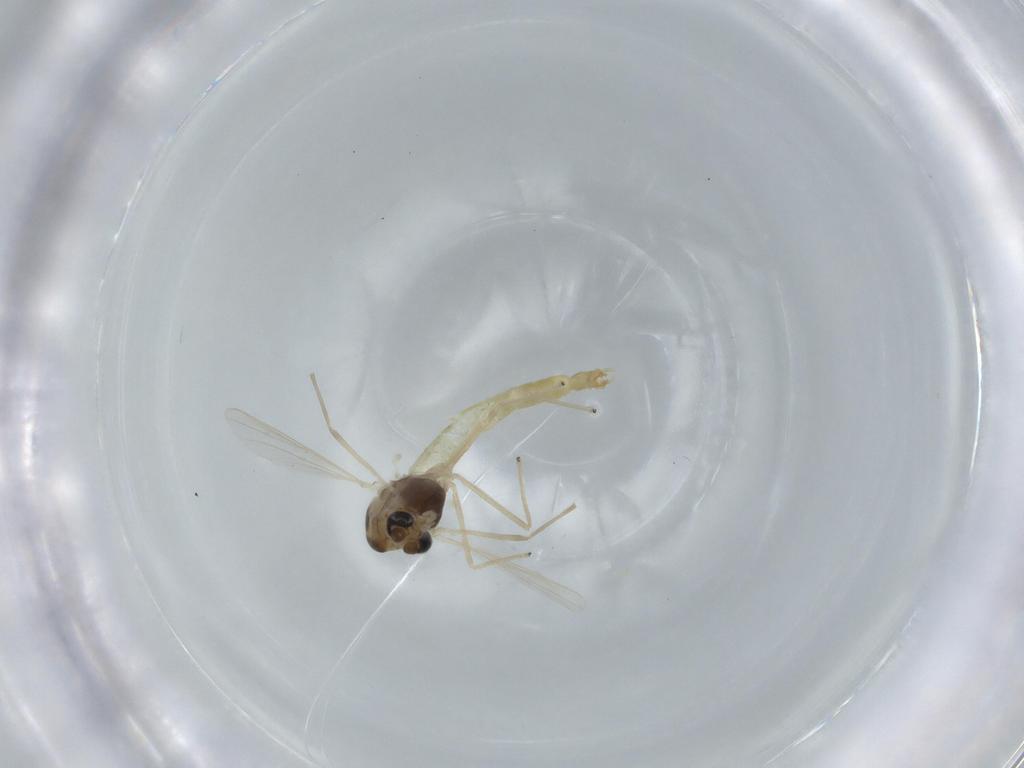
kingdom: Animalia
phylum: Arthropoda
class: Insecta
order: Diptera
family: Chironomidae
